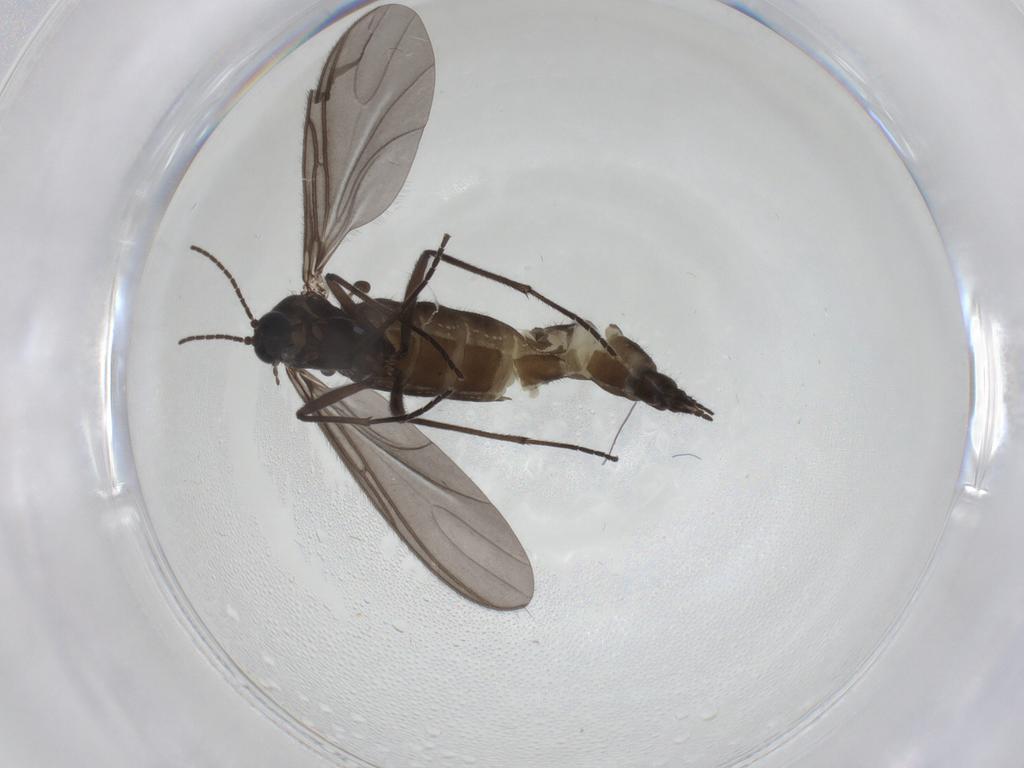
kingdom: Animalia
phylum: Arthropoda
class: Insecta
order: Diptera
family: Sciaridae
